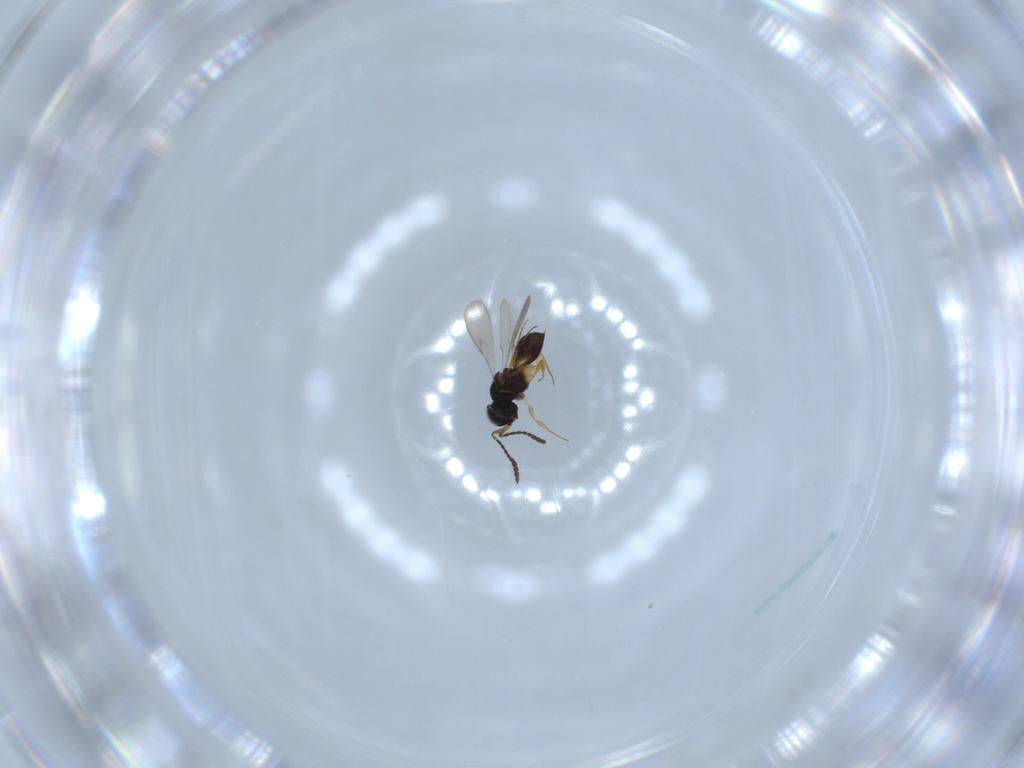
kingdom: Animalia
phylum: Arthropoda
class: Insecta
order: Hymenoptera
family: Scelionidae
